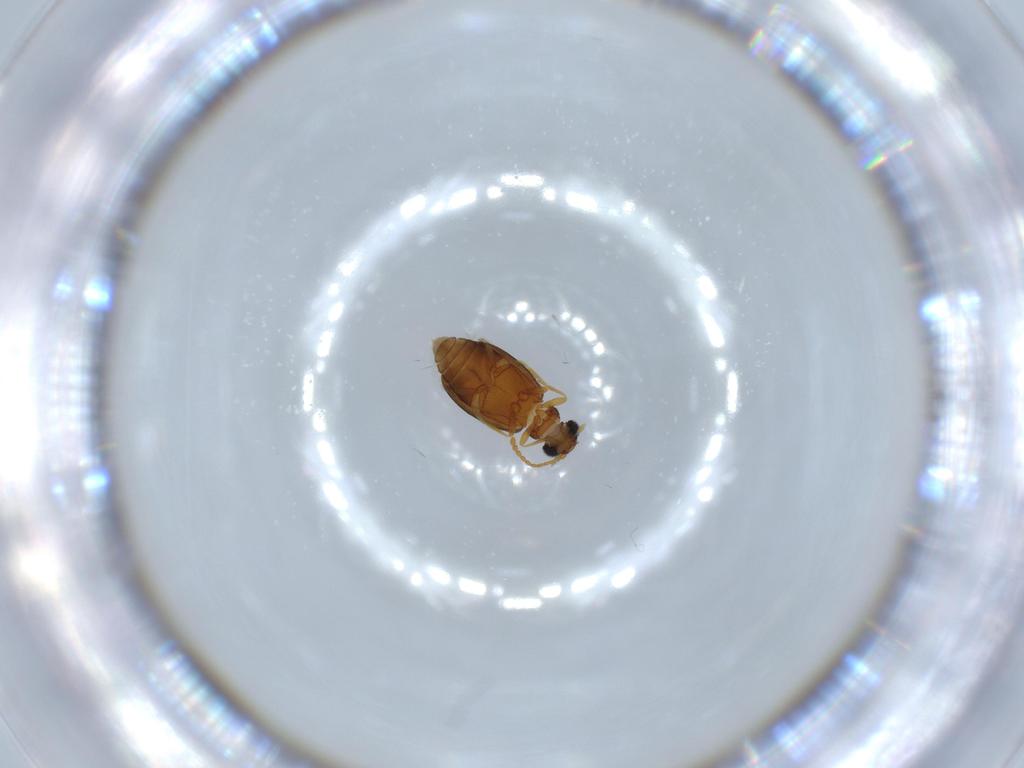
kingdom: Animalia
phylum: Arthropoda
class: Insecta
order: Coleoptera
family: Aderidae
